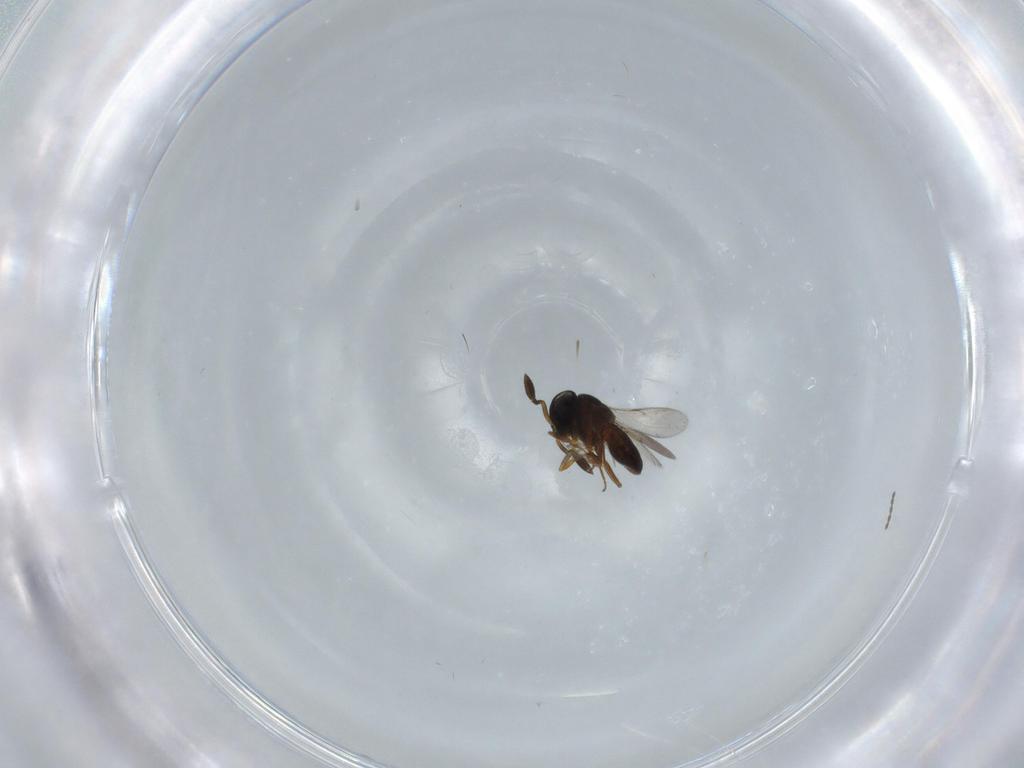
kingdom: Animalia
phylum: Arthropoda
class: Insecta
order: Coleoptera
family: Curculionidae
